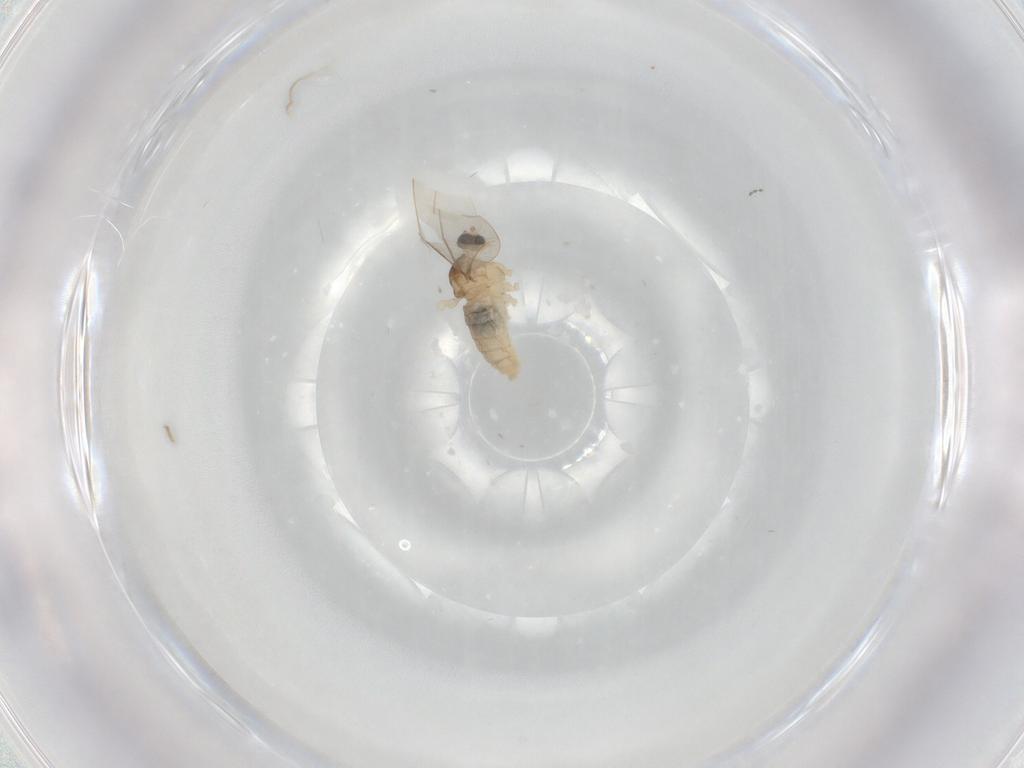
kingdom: Animalia
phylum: Arthropoda
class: Insecta
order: Diptera
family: Cecidomyiidae
